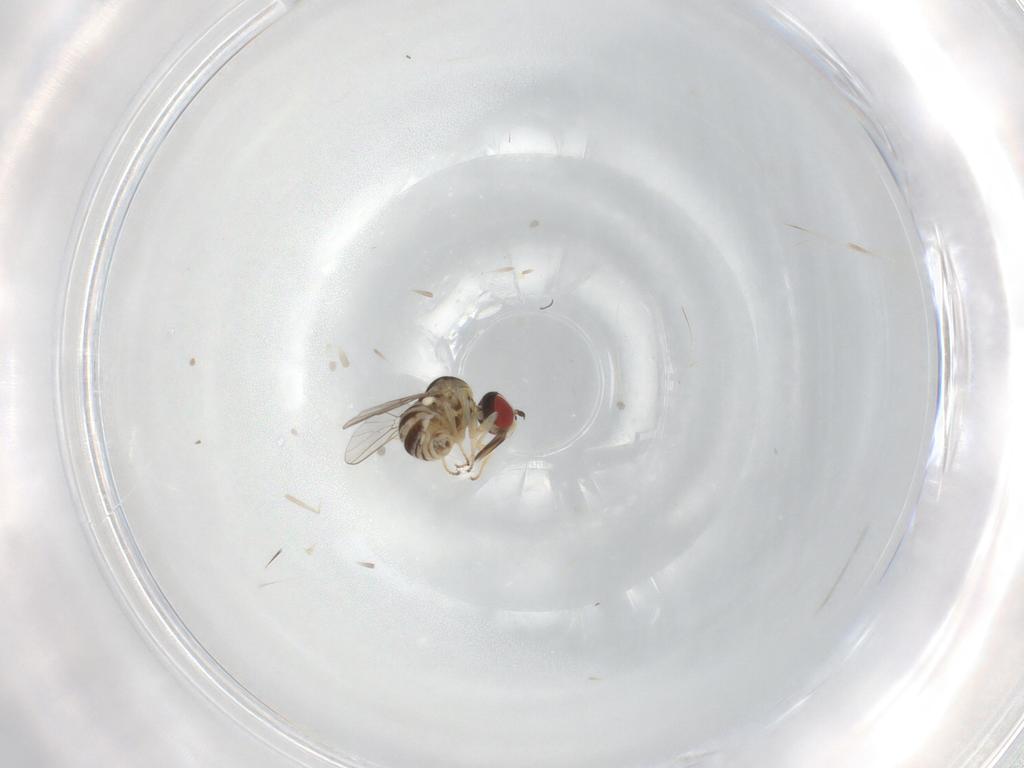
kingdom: Animalia
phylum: Arthropoda
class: Insecta
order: Diptera
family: Bombyliidae
